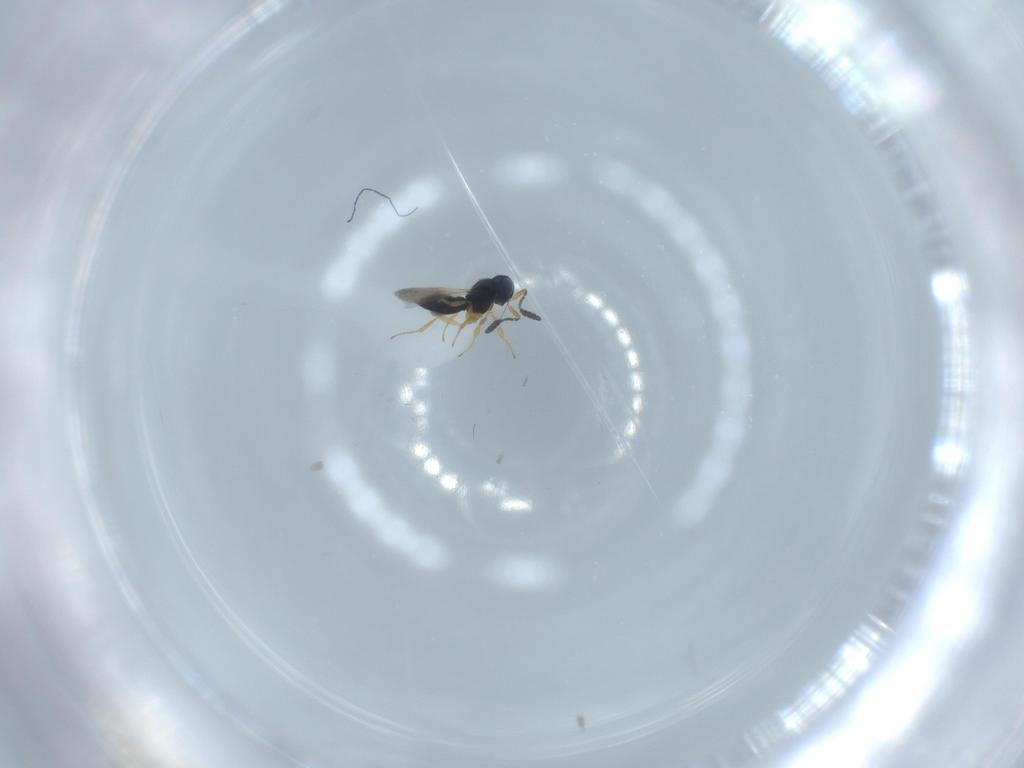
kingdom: Animalia
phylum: Arthropoda
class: Insecta
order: Hymenoptera
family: Scelionidae
